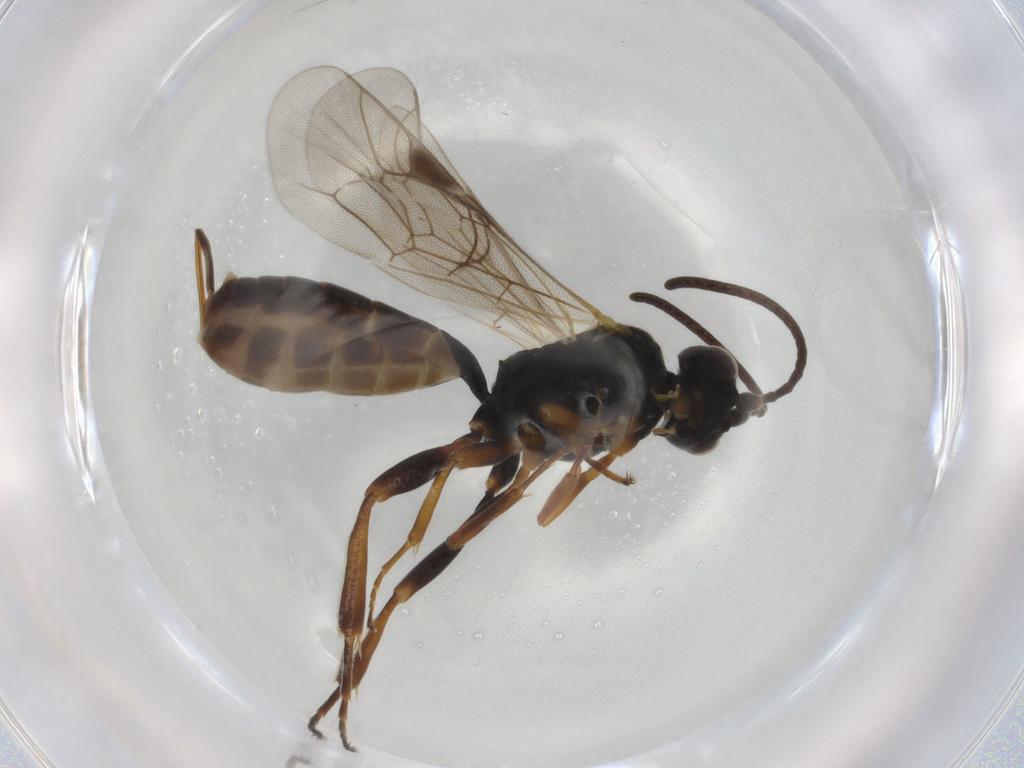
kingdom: Animalia
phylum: Arthropoda
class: Insecta
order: Hymenoptera
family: Ichneumonidae
